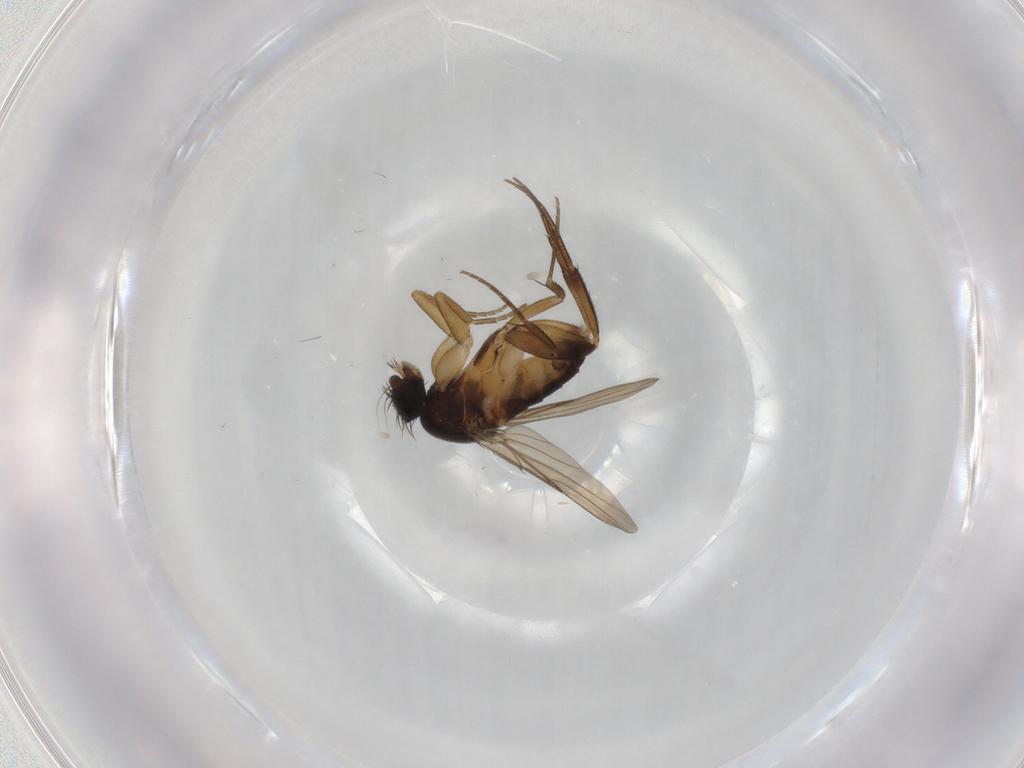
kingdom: Animalia
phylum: Arthropoda
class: Insecta
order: Diptera
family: Phoridae
